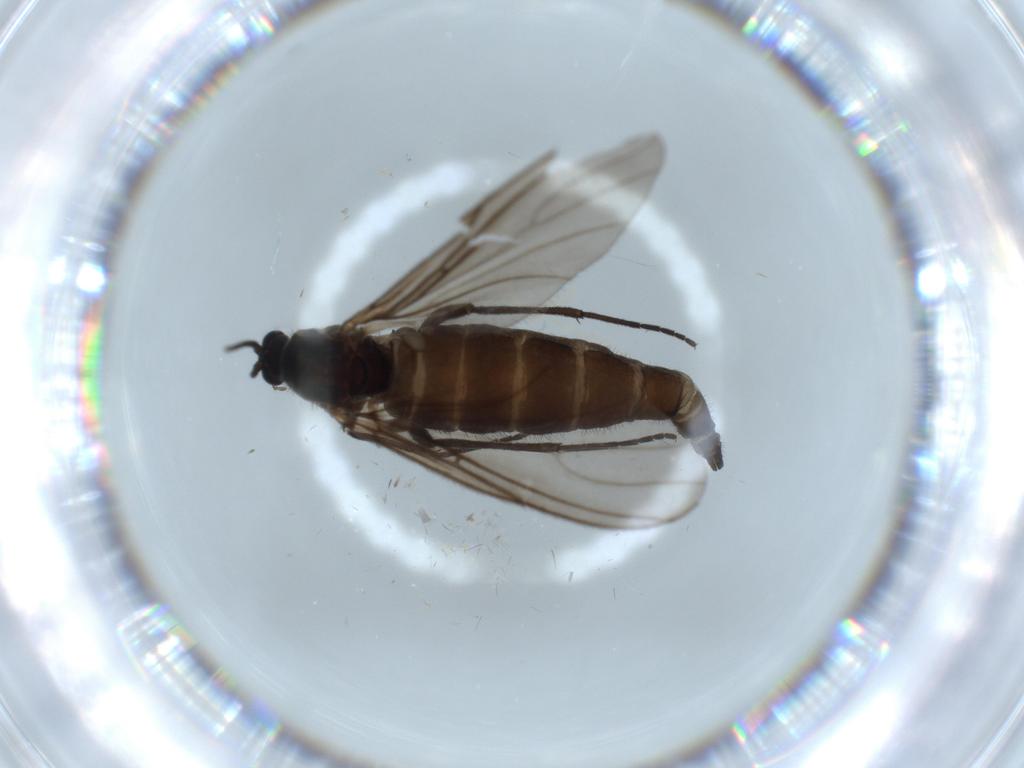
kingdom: Animalia
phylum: Arthropoda
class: Insecta
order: Diptera
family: Sciaridae
